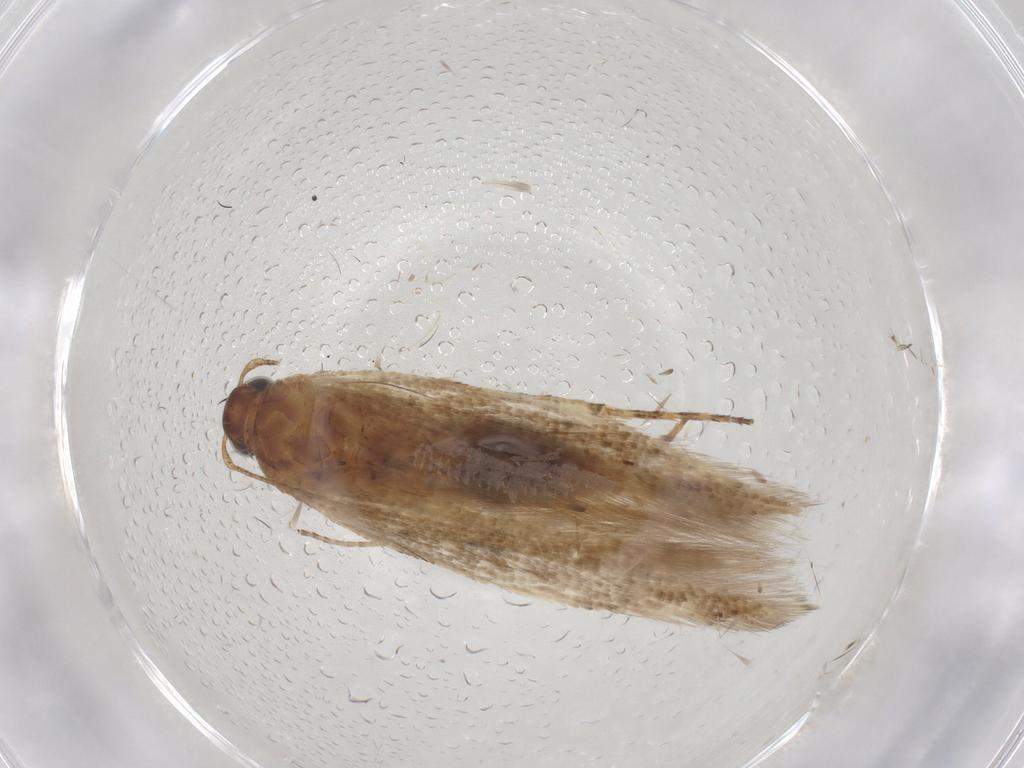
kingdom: Animalia
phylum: Arthropoda
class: Insecta
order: Lepidoptera
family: Gelechiidae
